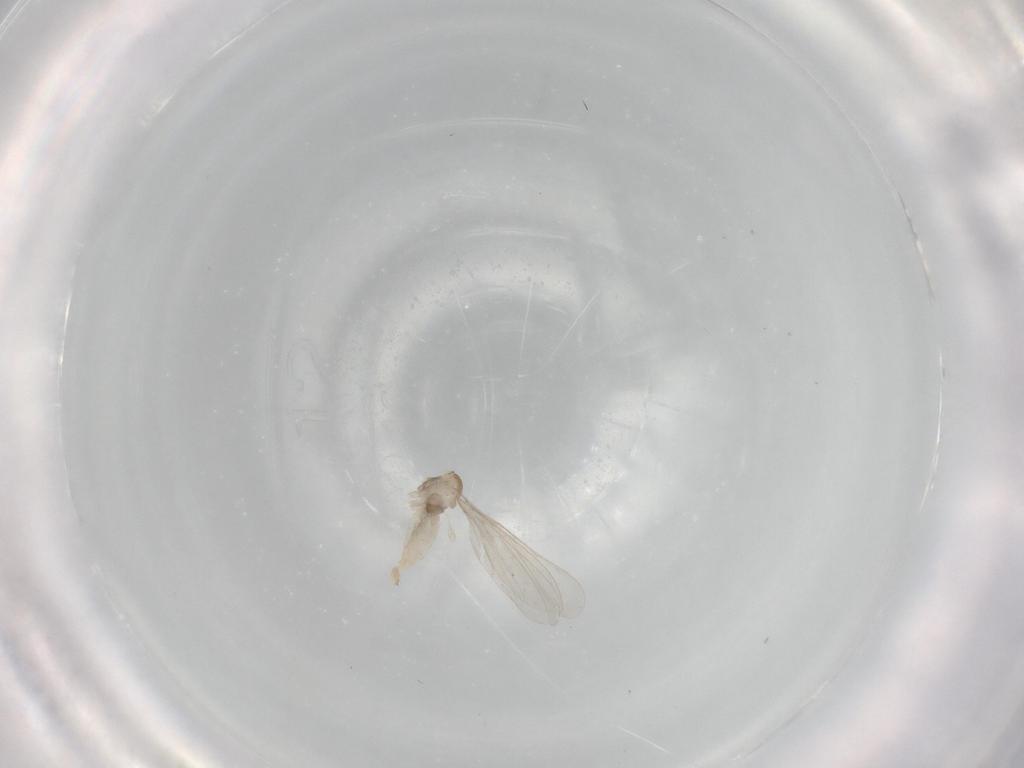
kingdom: Animalia
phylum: Arthropoda
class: Insecta
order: Diptera
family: Cecidomyiidae
